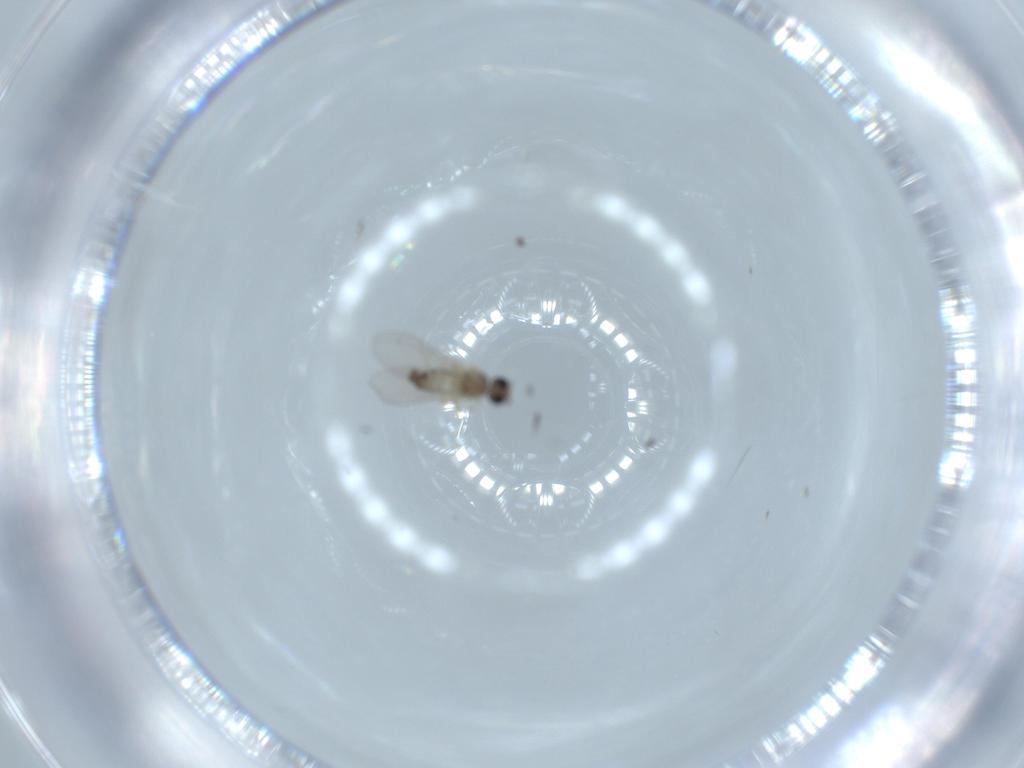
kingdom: Animalia
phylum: Arthropoda
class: Insecta
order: Diptera
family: Cecidomyiidae
